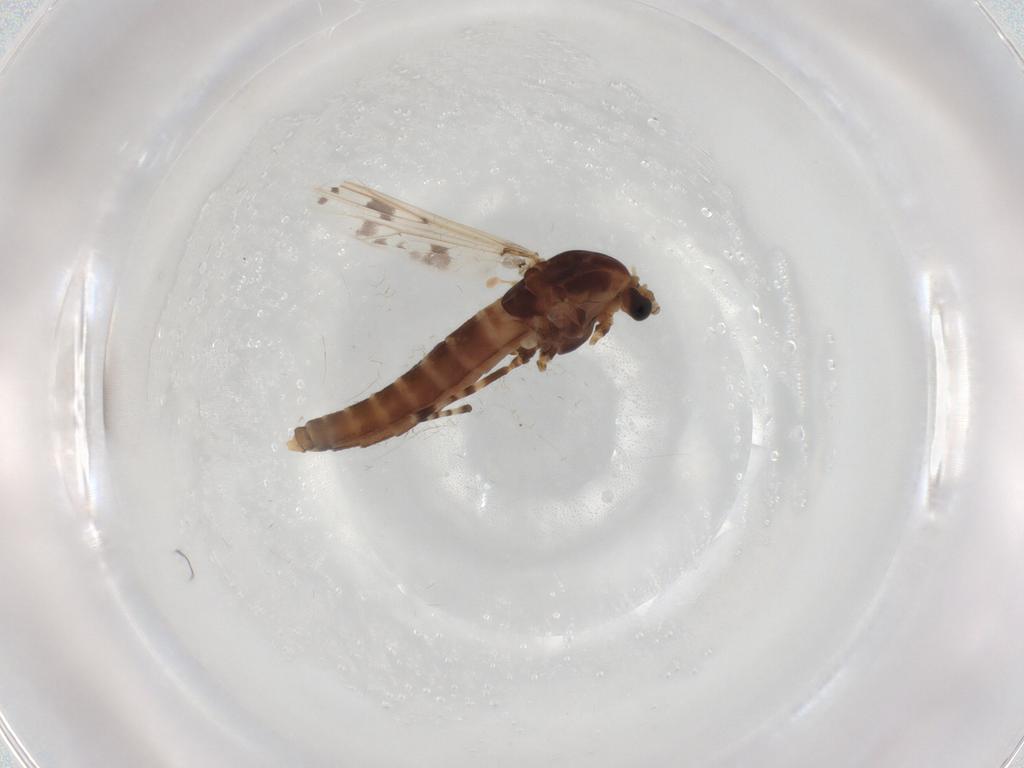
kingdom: Animalia
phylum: Arthropoda
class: Insecta
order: Diptera
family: Chironomidae
